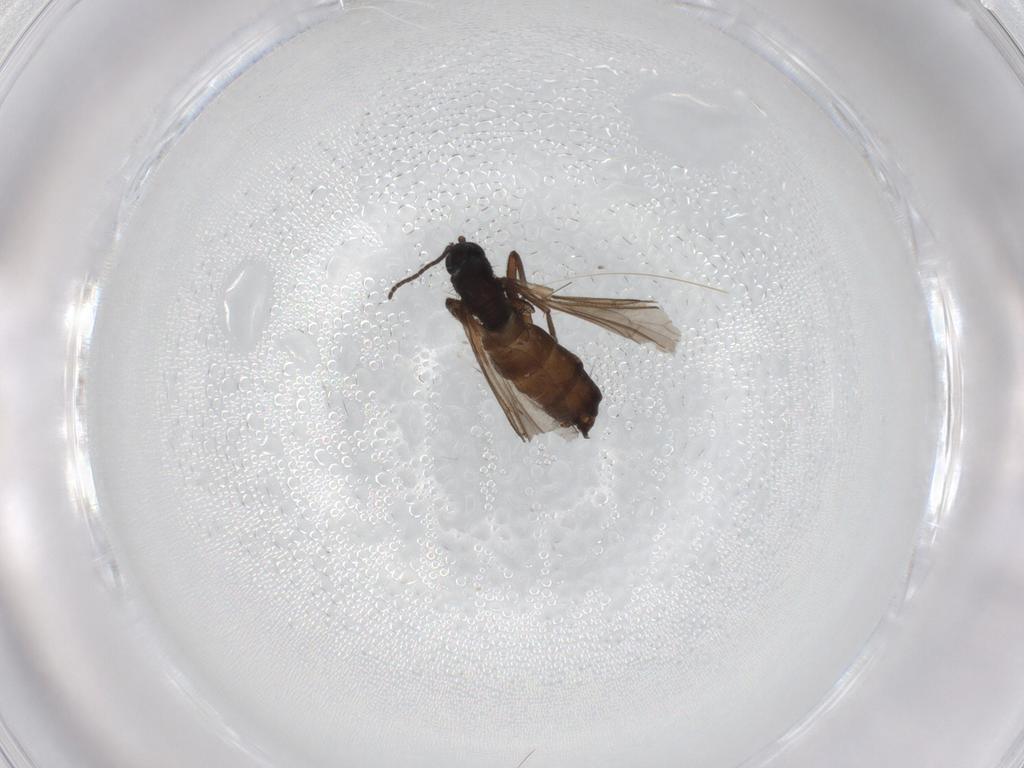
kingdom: Animalia
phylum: Arthropoda
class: Insecta
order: Diptera
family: Sciaridae
